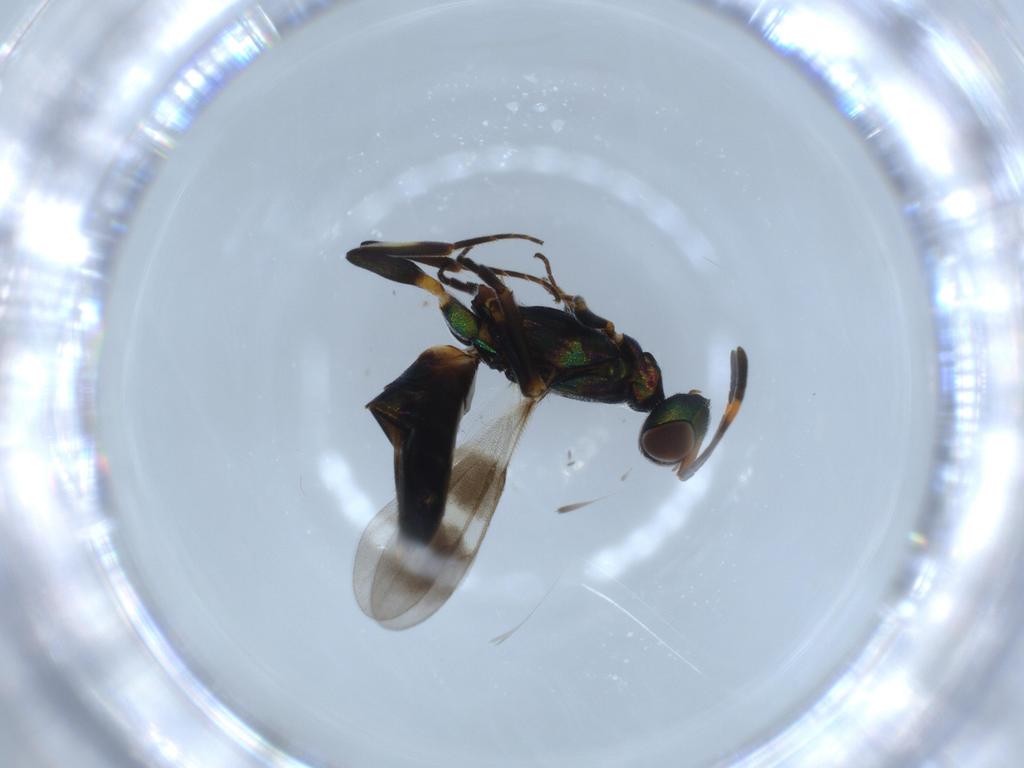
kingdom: Animalia
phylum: Arthropoda
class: Insecta
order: Hymenoptera
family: Eupelmidae
